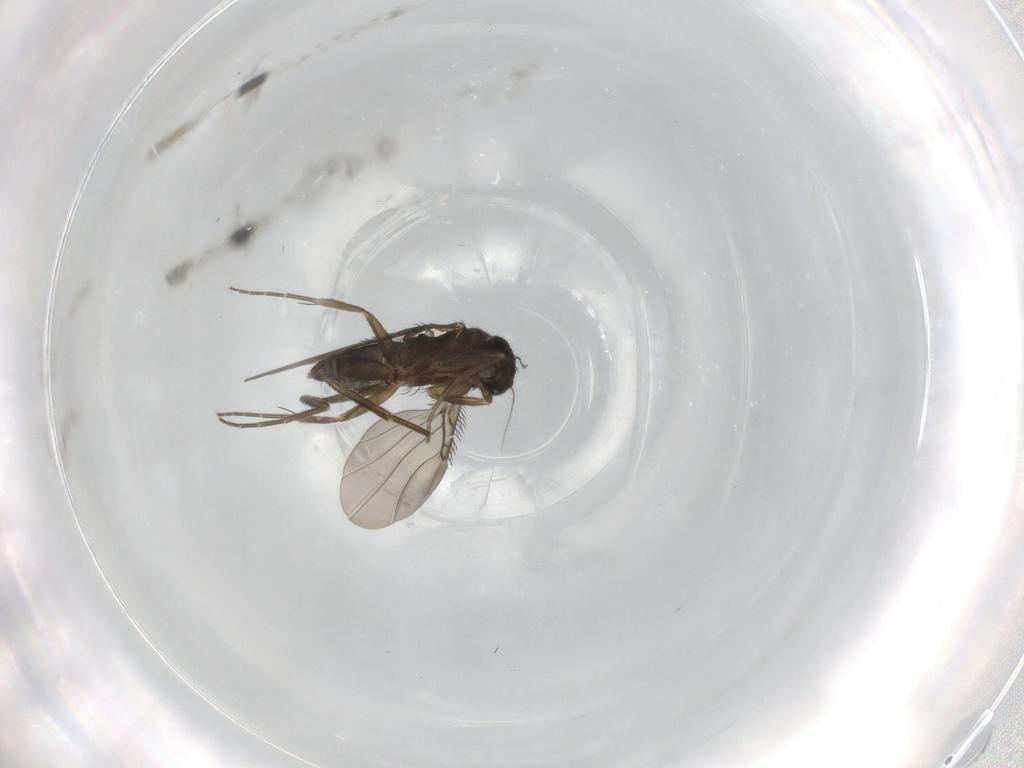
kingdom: Animalia
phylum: Arthropoda
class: Insecta
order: Diptera
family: Phoridae
